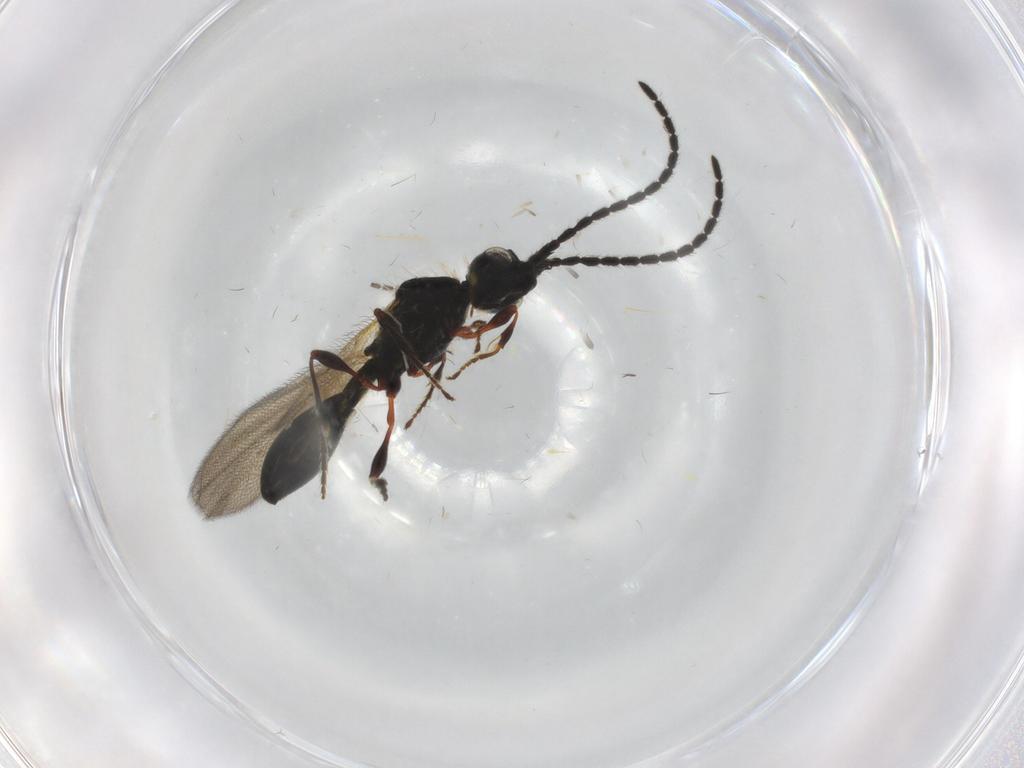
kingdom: Animalia
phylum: Arthropoda
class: Insecta
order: Hymenoptera
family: Diapriidae
